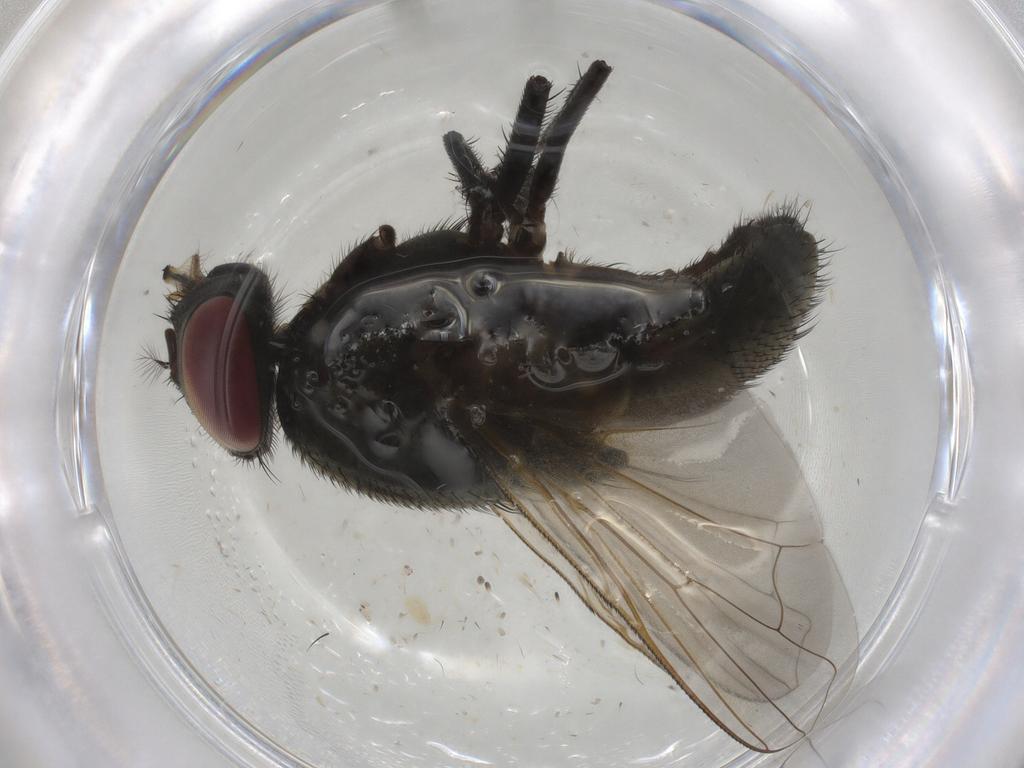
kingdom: Animalia
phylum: Arthropoda
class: Insecta
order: Diptera
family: Muscidae
